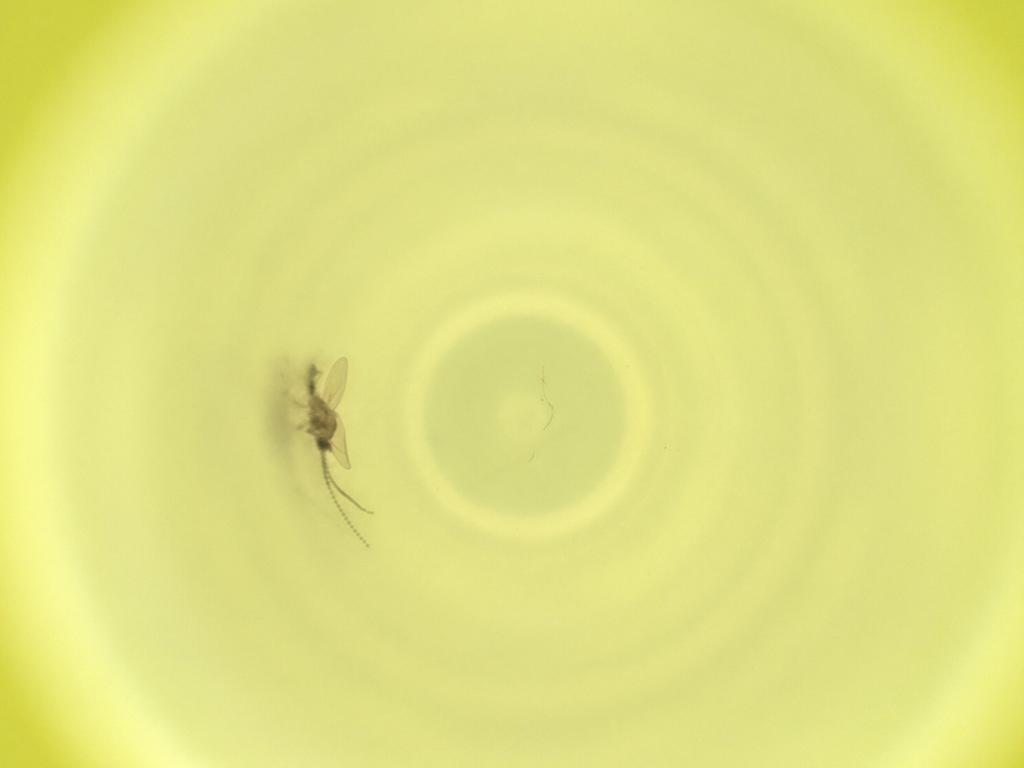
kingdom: Animalia
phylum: Arthropoda
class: Insecta
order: Diptera
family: Cecidomyiidae
